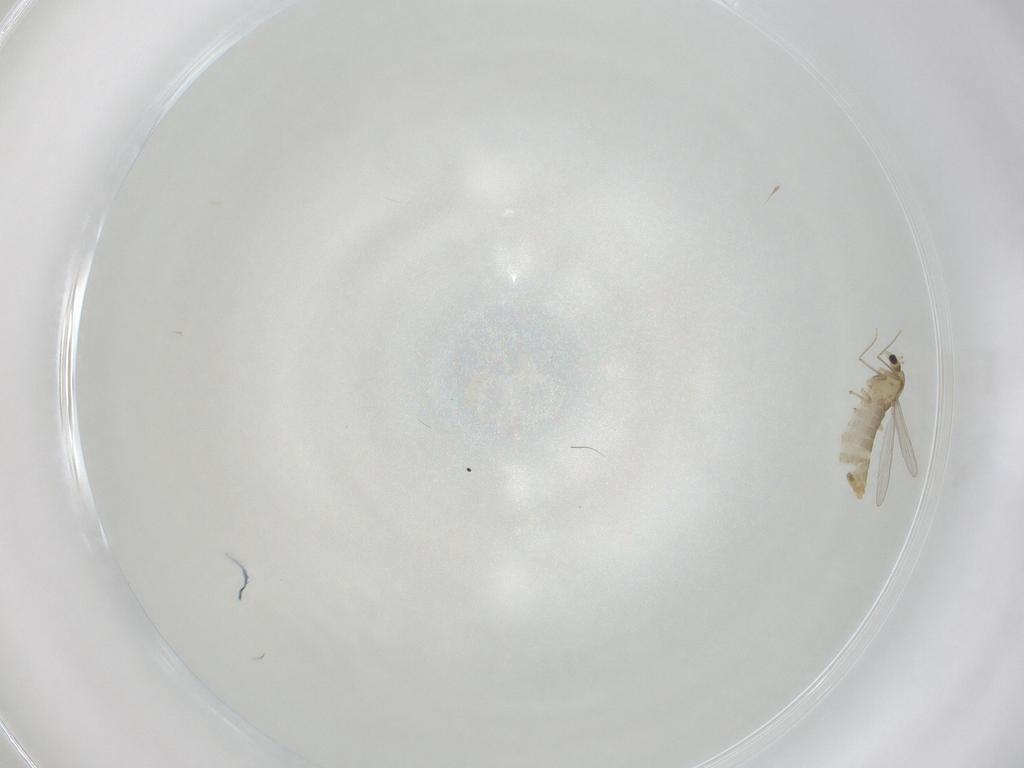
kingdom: Animalia
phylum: Arthropoda
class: Insecta
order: Diptera
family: Chironomidae
